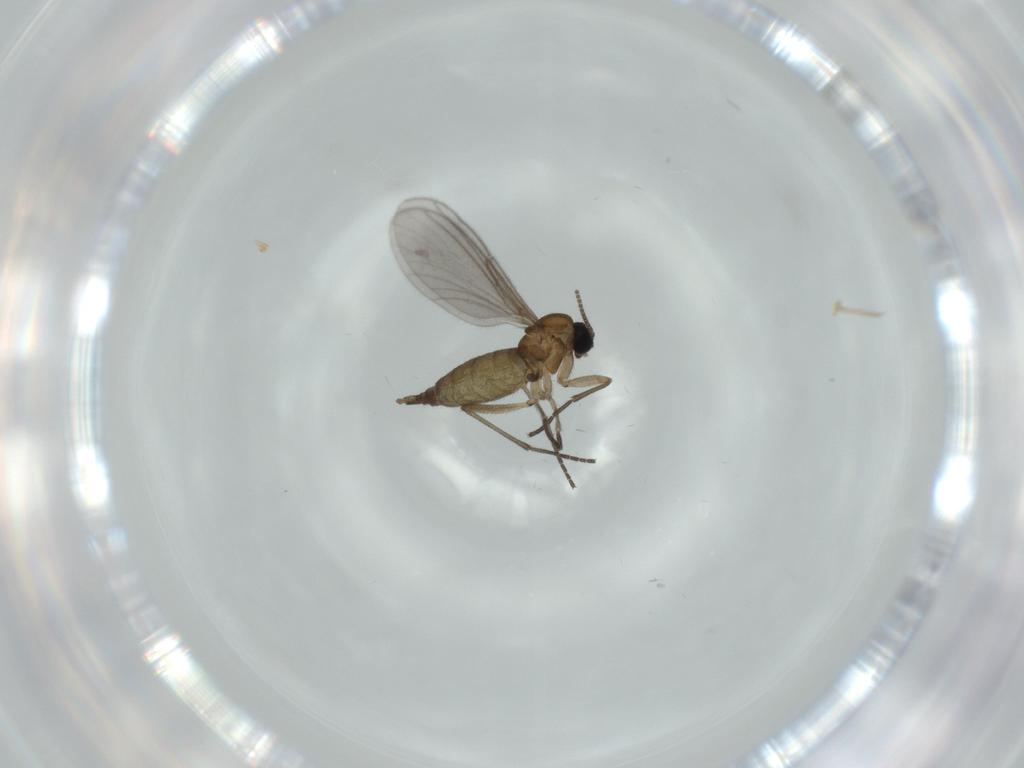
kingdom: Animalia
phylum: Arthropoda
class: Insecta
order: Diptera
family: Sciaridae
